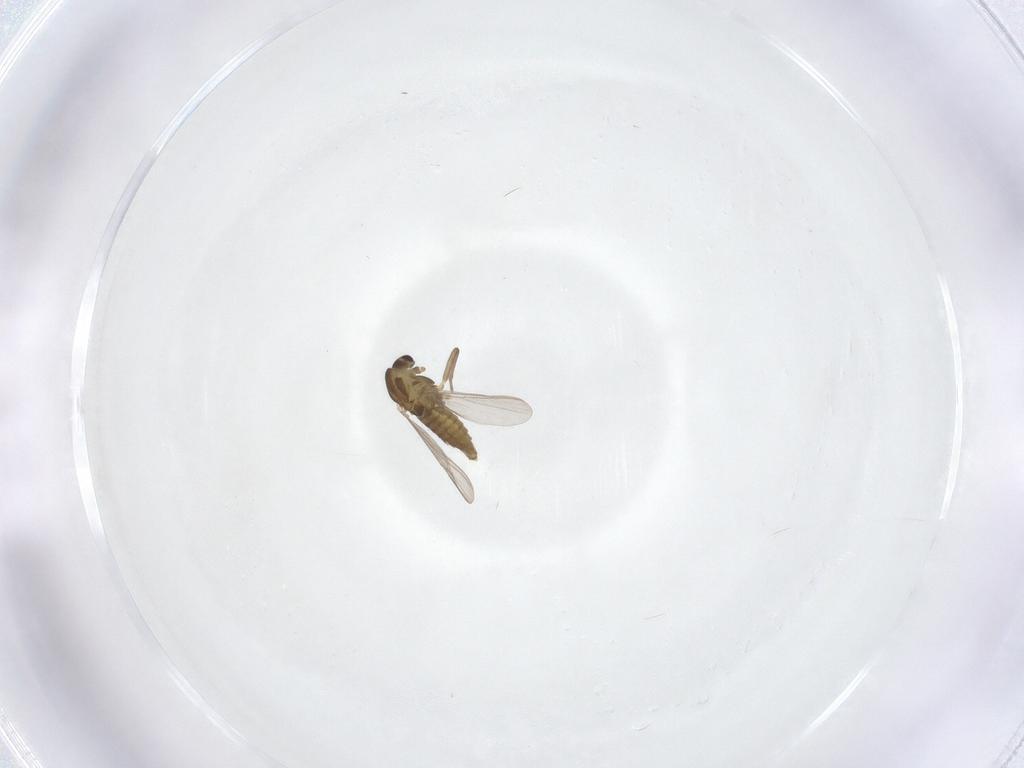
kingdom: Animalia
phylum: Arthropoda
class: Insecta
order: Diptera
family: Chironomidae
